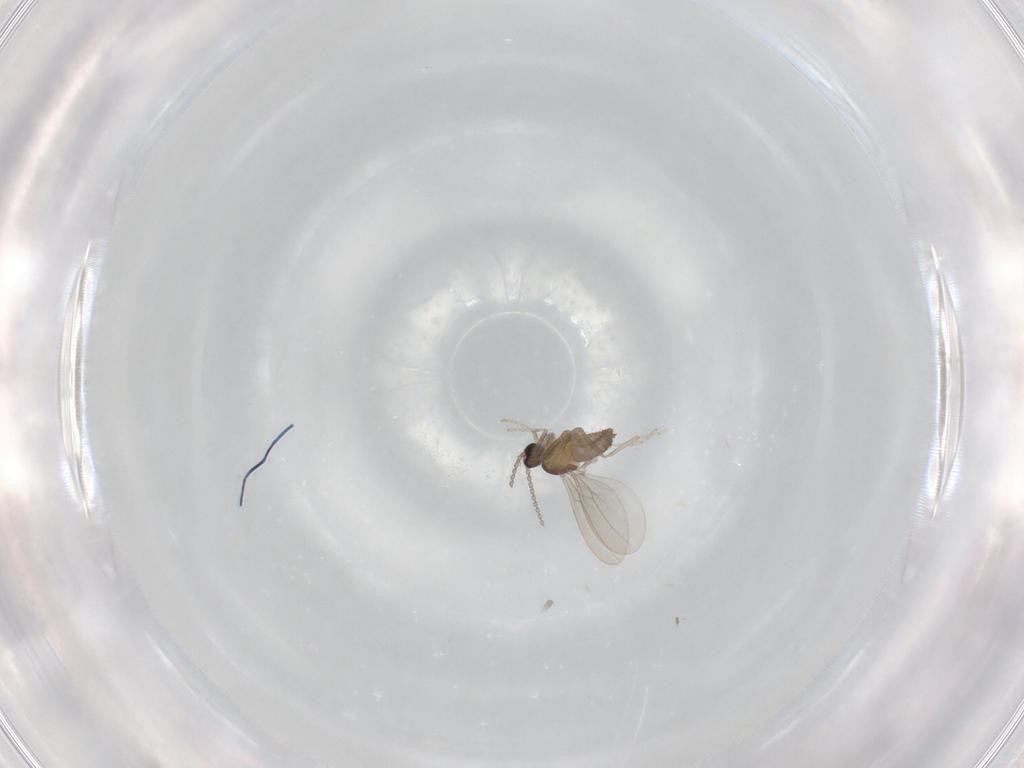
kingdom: Animalia
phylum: Arthropoda
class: Insecta
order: Diptera
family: Cecidomyiidae
